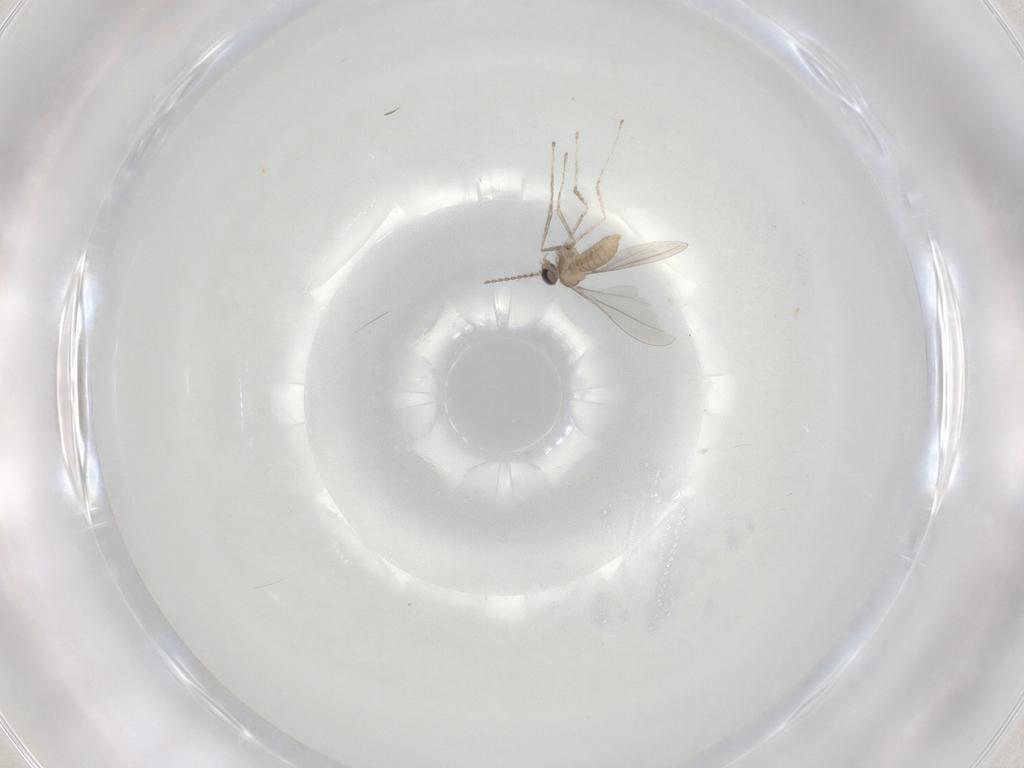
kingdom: Animalia
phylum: Arthropoda
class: Insecta
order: Diptera
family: Cecidomyiidae
